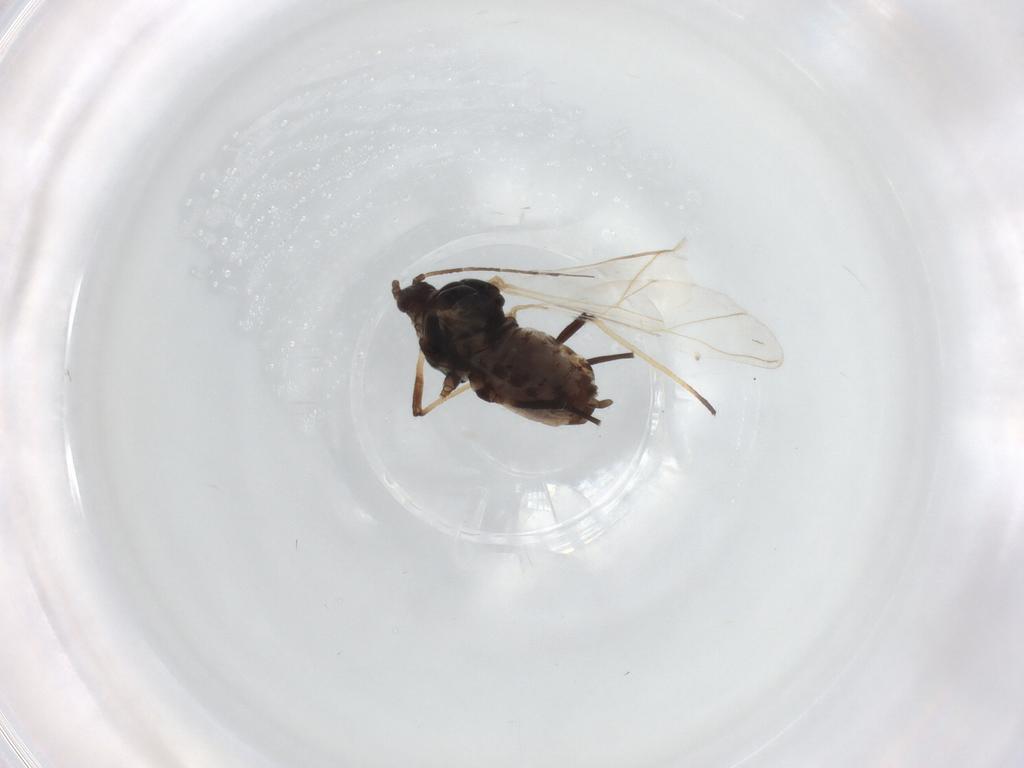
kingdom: Animalia
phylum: Arthropoda
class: Insecta
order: Hemiptera
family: Aphididae
